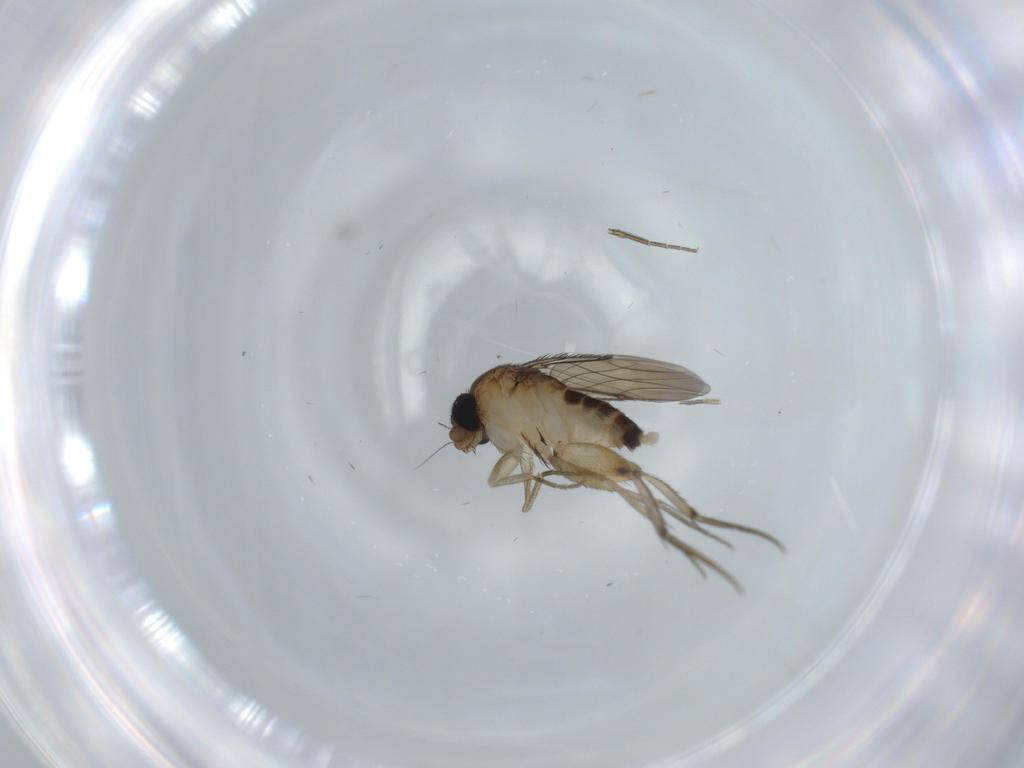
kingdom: Animalia
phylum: Arthropoda
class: Insecta
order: Diptera
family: Phoridae
